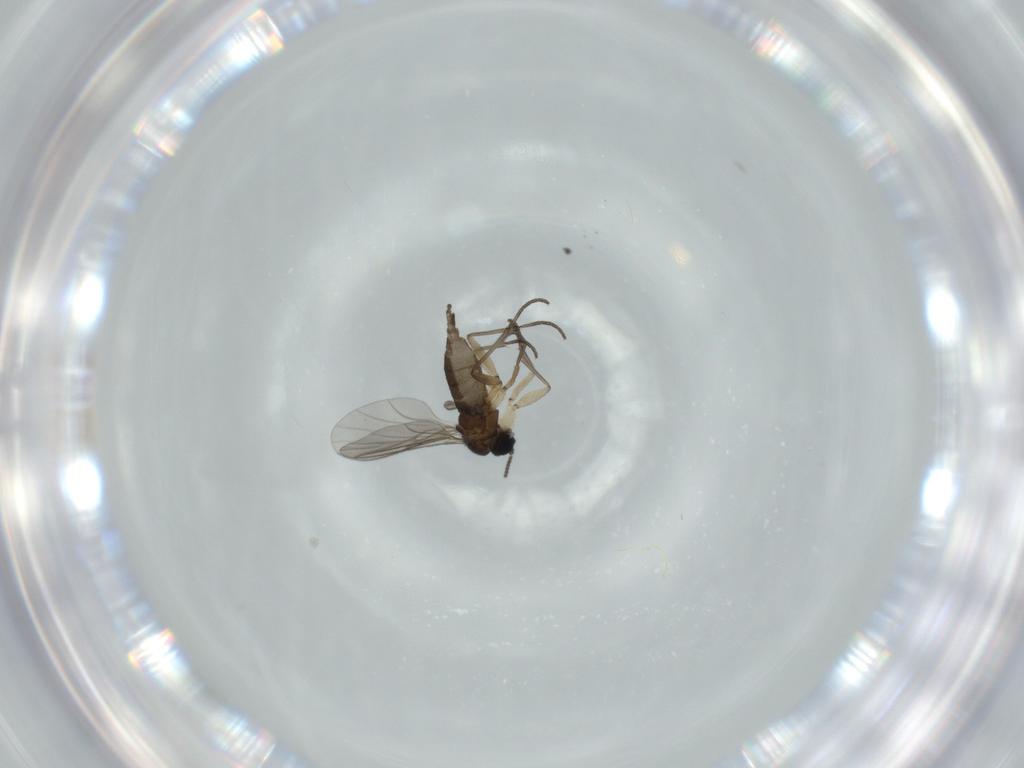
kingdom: Animalia
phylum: Arthropoda
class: Insecta
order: Diptera
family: Sciaridae
